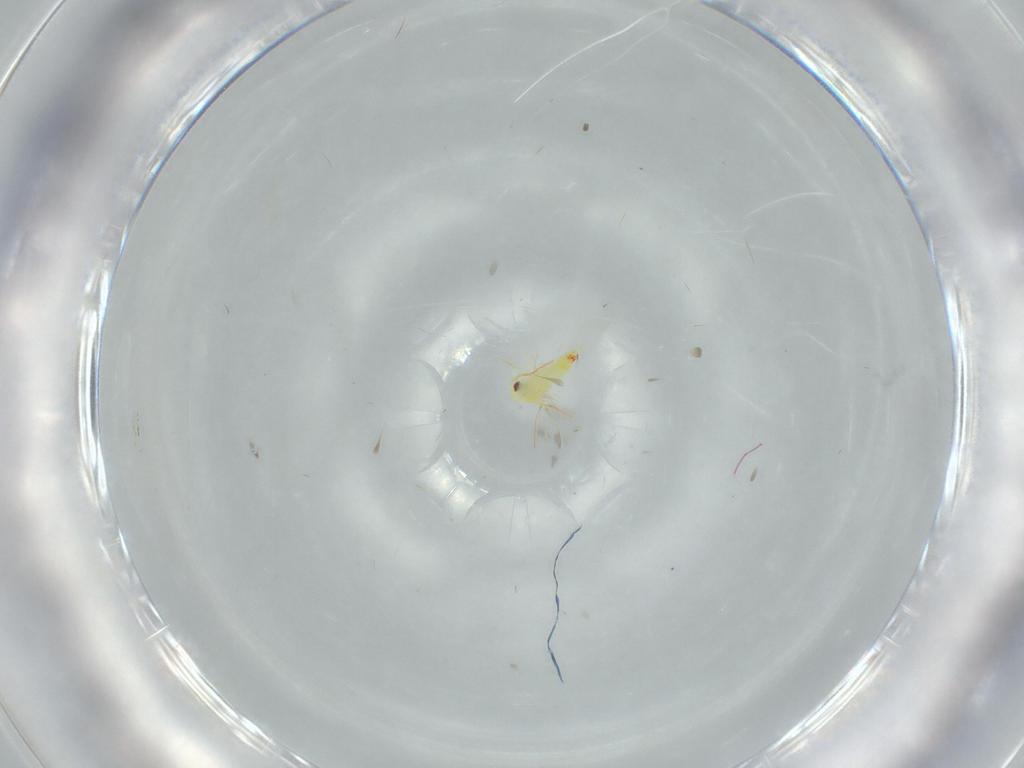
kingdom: Animalia
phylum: Arthropoda
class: Insecta
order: Hemiptera
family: Aleyrodidae
